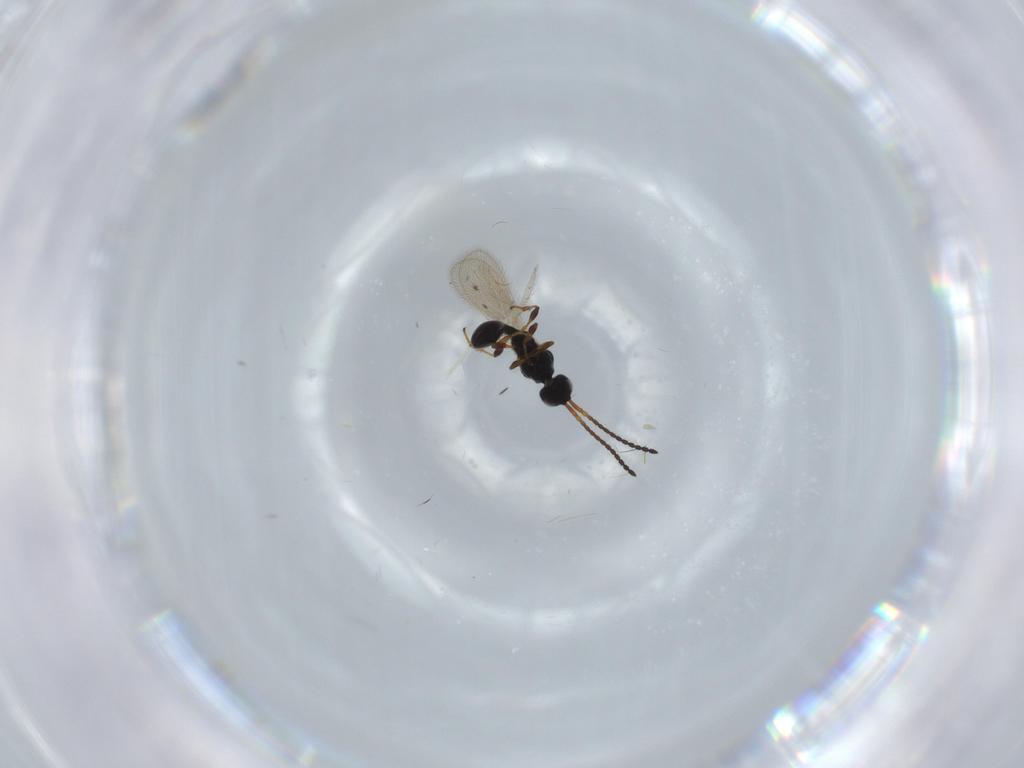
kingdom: Animalia
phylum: Arthropoda
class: Insecta
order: Hymenoptera
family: Diapriidae
